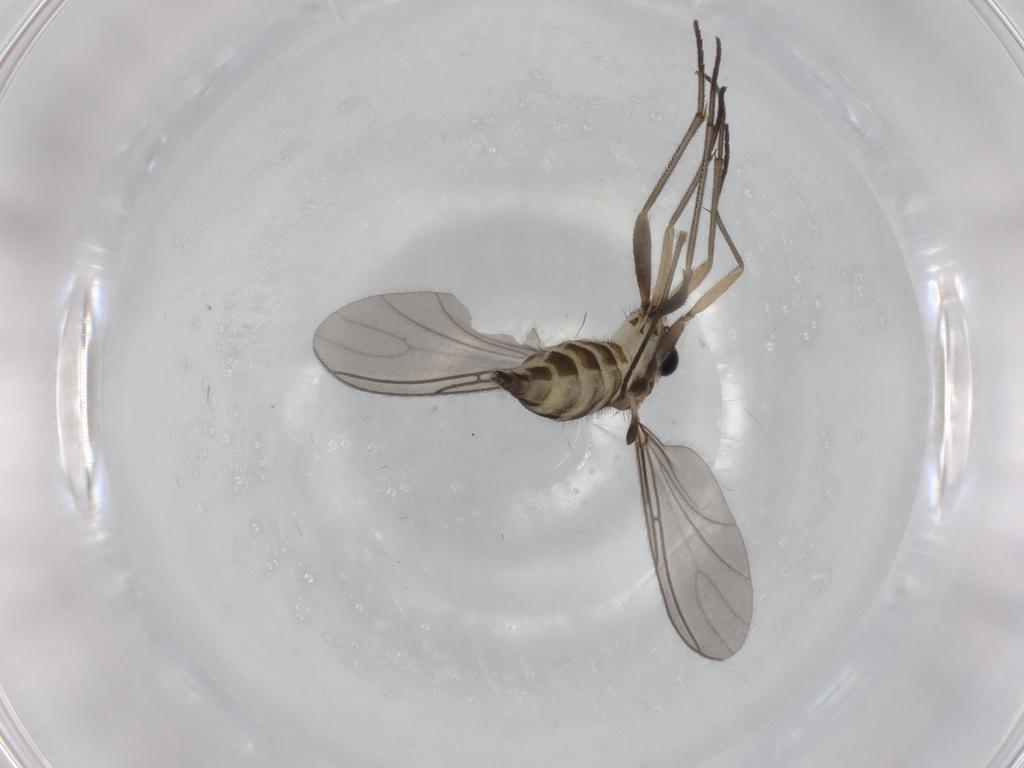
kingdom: Animalia
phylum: Arthropoda
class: Insecta
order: Diptera
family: Sciaridae
